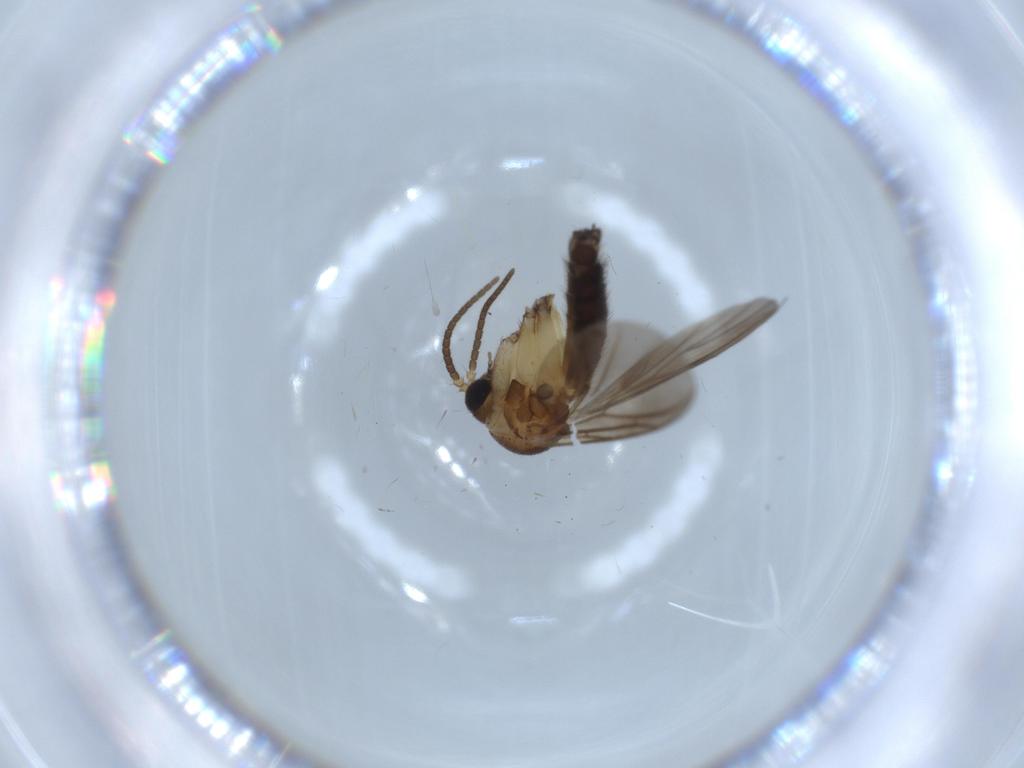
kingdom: Animalia
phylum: Arthropoda
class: Insecta
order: Diptera
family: Mycetophilidae
